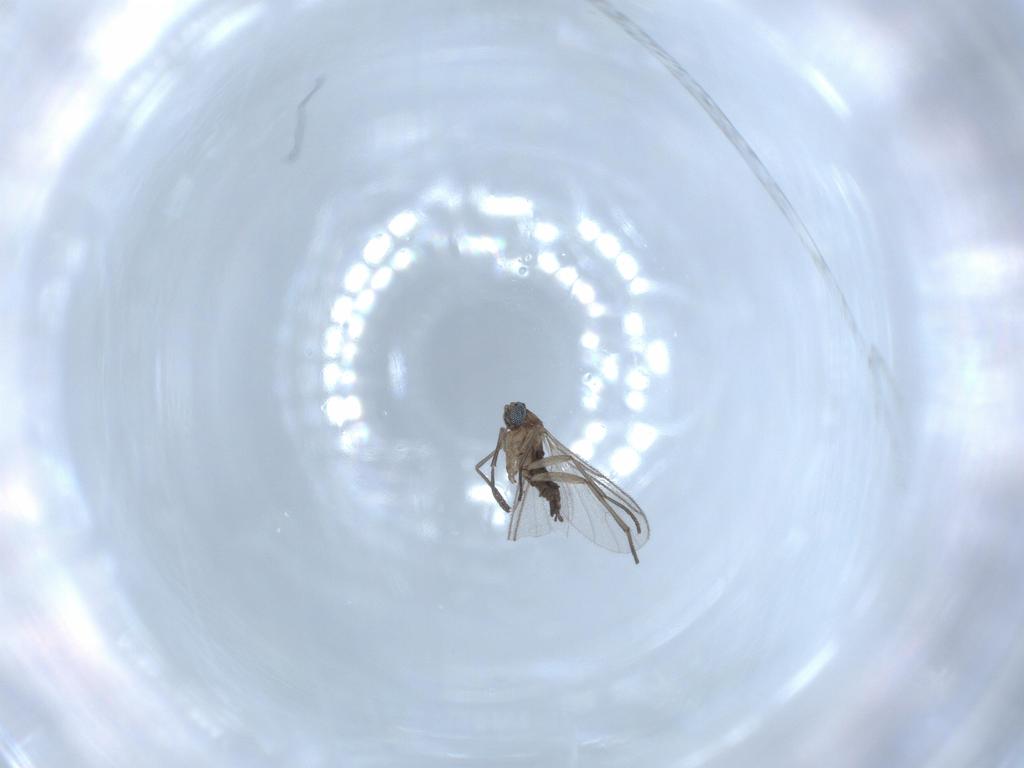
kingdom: Animalia
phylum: Arthropoda
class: Insecta
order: Diptera
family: Sciaridae
